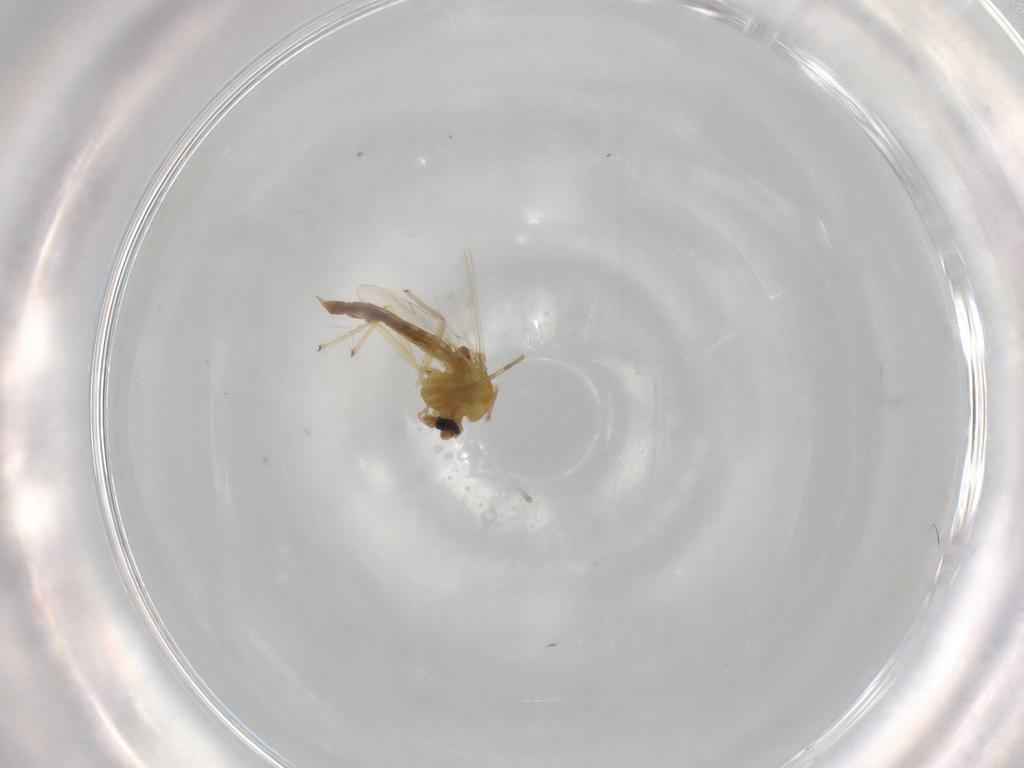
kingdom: Animalia
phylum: Arthropoda
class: Insecta
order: Diptera
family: Chironomidae
